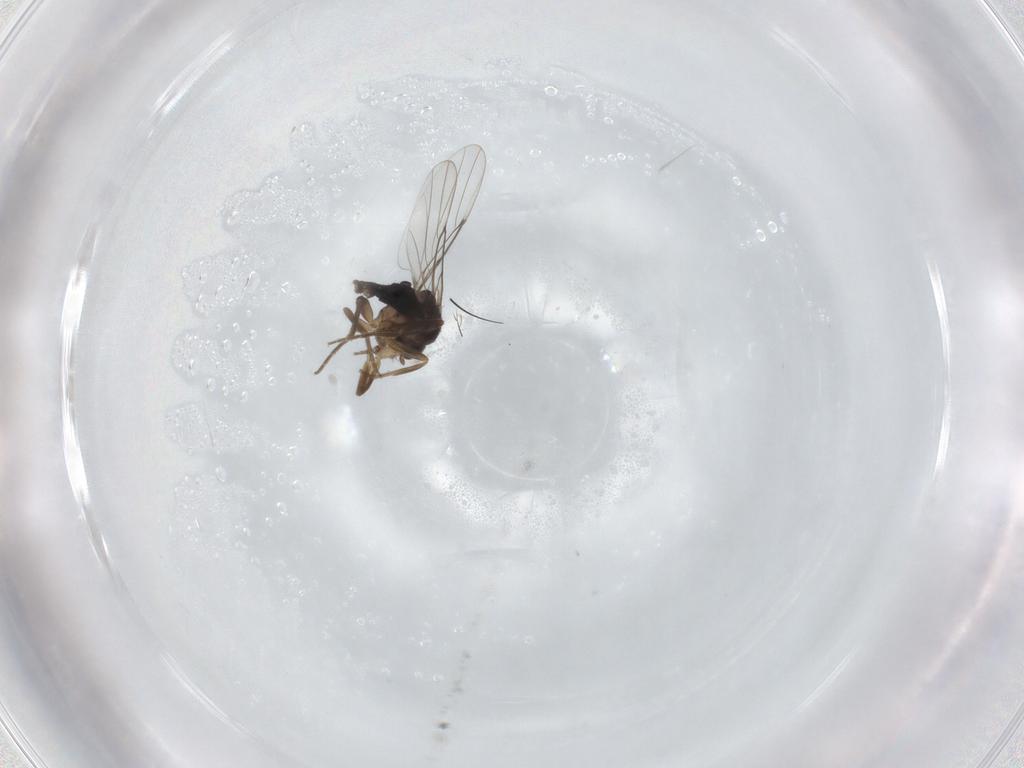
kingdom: Animalia
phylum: Arthropoda
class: Insecta
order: Diptera
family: Phoridae
